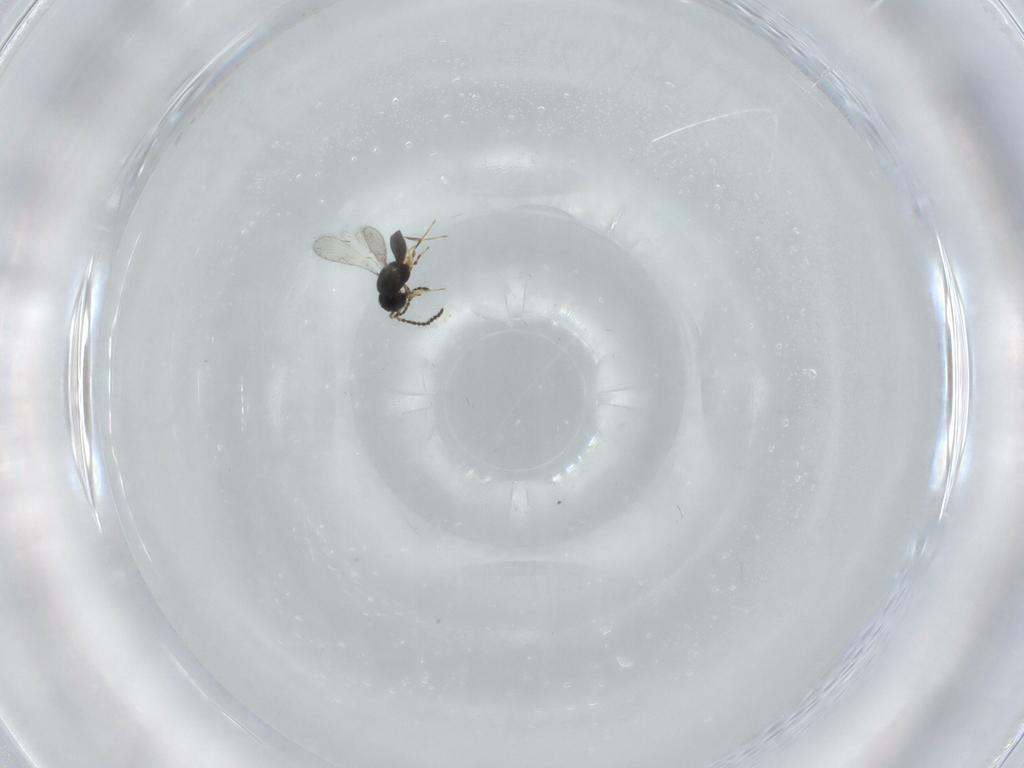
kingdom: Animalia
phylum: Arthropoda
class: Insecta
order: Hymenoptera
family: Scelionidae
